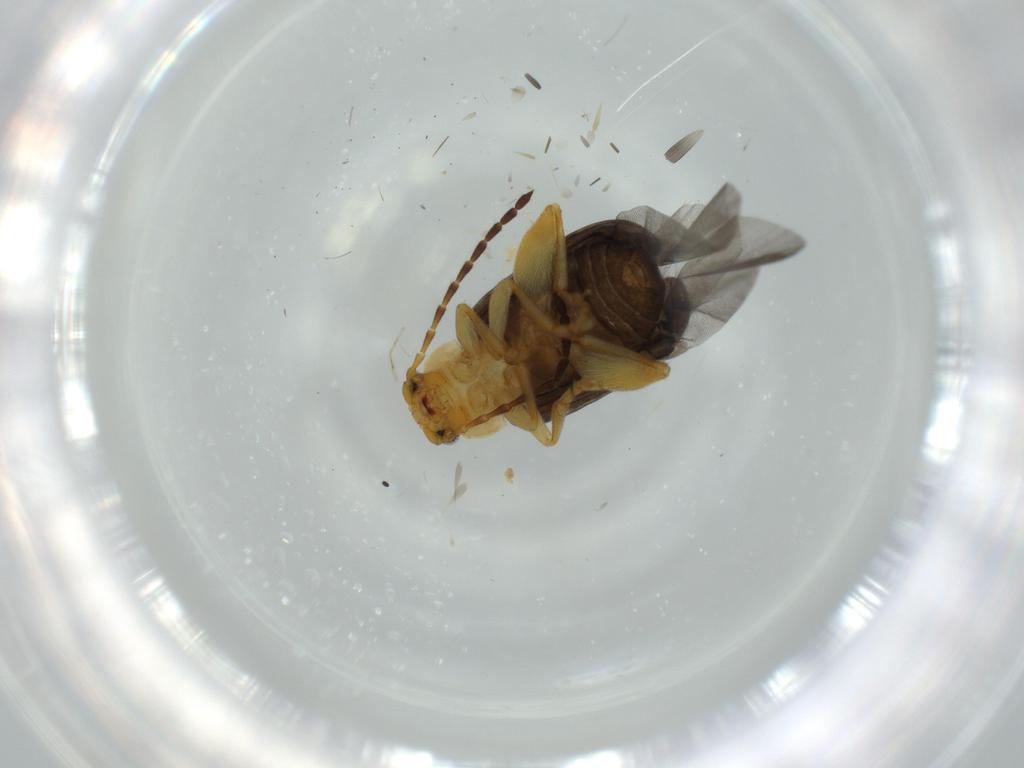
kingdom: Animalia
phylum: Arthropoda
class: Insecta
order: Coleoptera
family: Chrysomelidae
